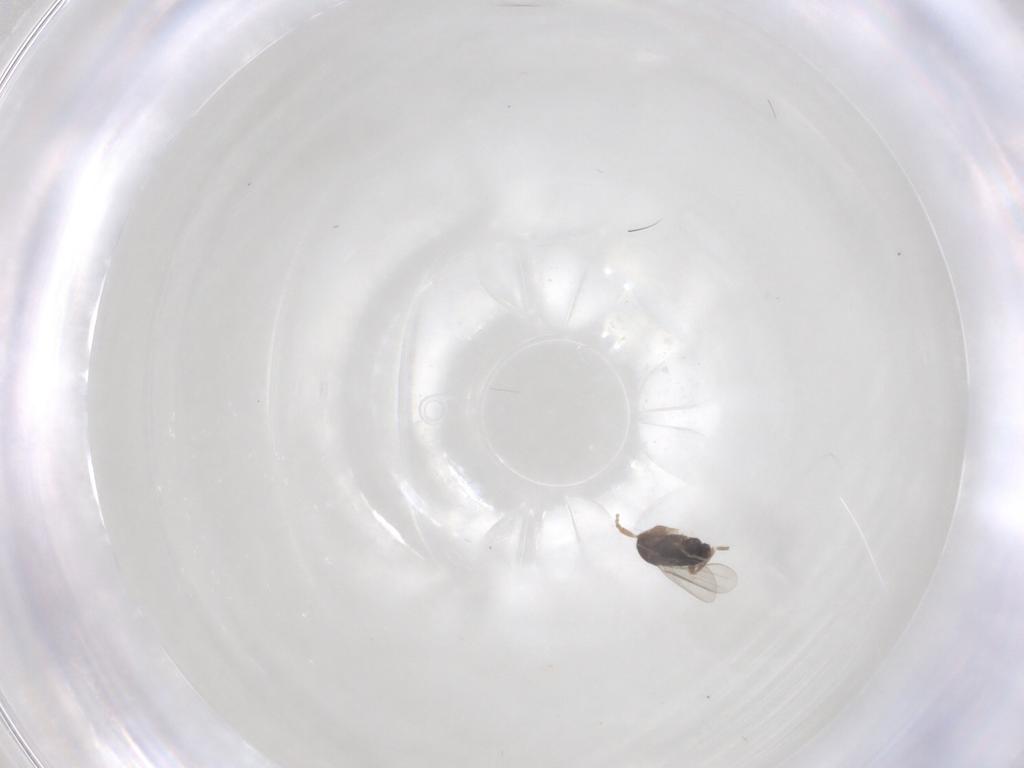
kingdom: Animalia
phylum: Arthropoda
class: Insecta
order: Diptera
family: Phoridae
